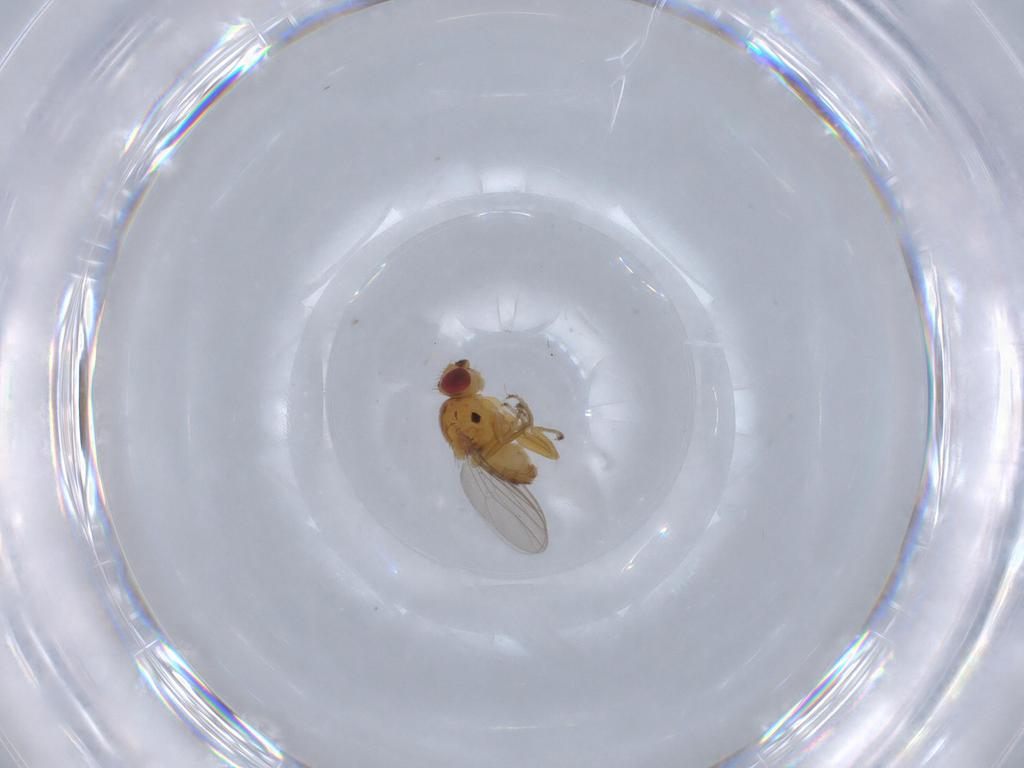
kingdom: Animalia
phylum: Arthropoda
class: Insecta
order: Diptera
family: Chloropidae
